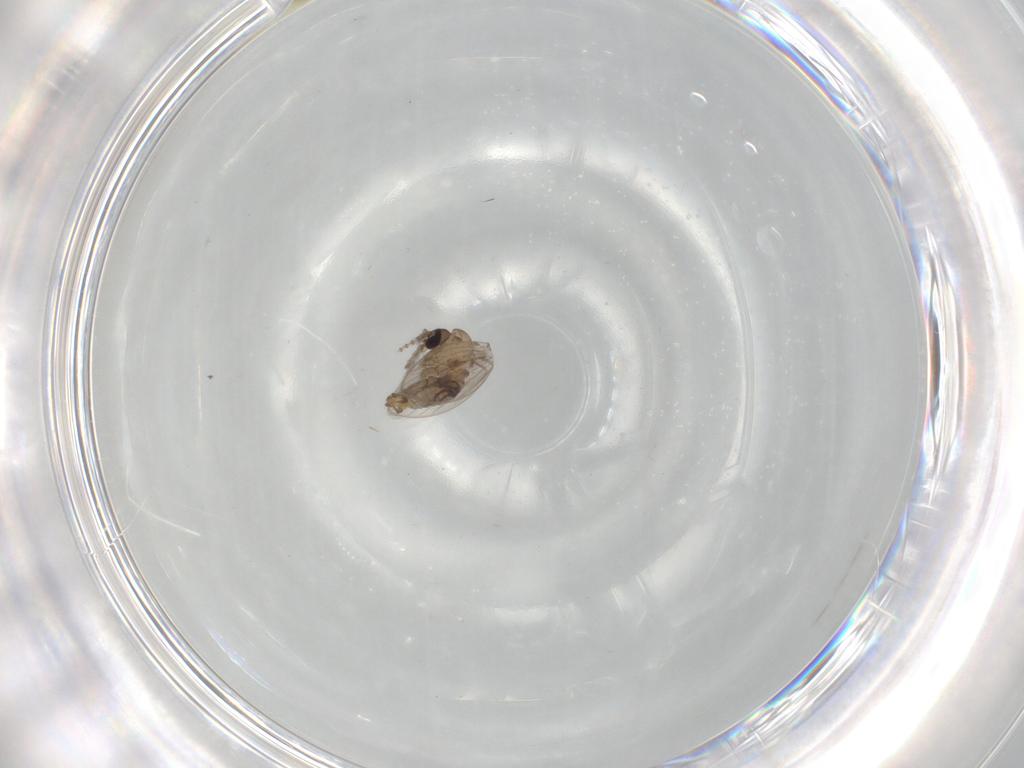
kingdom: Animalia
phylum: Arthropoda
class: Insecta
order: Diptera
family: Psychodidae
